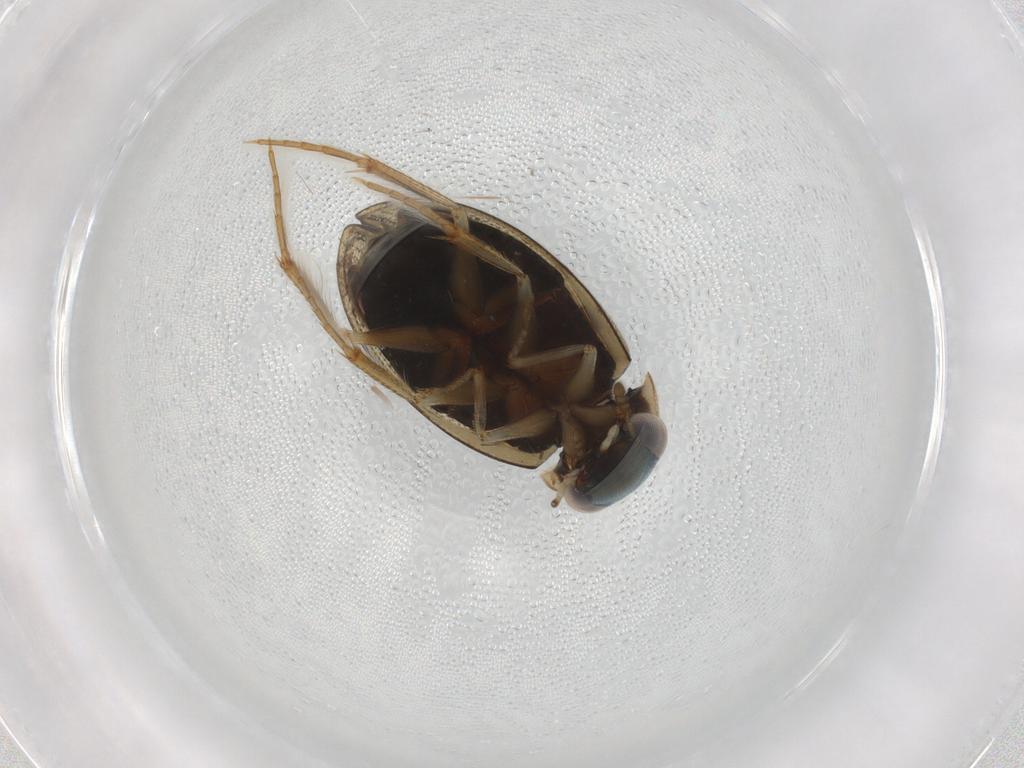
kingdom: Animalia
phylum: Arthropoda
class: Insecta
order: Coleoptera
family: Hydrophilidae
